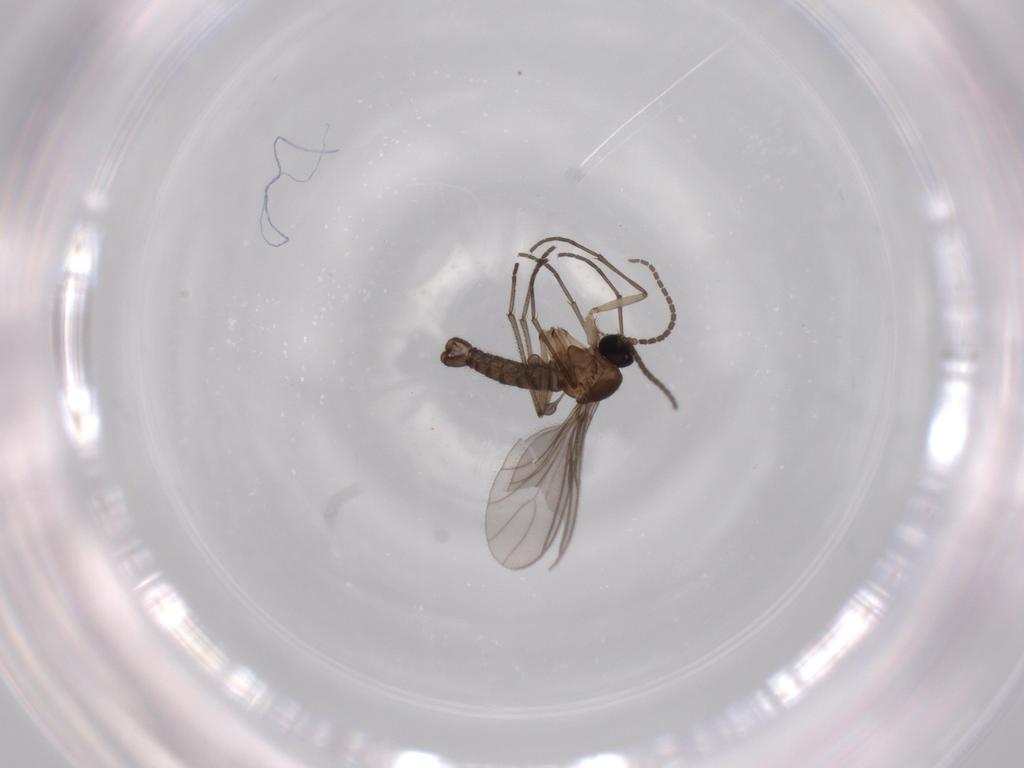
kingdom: Animalia
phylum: Arthropoda
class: Insecta
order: Diptera
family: Sciaridae
